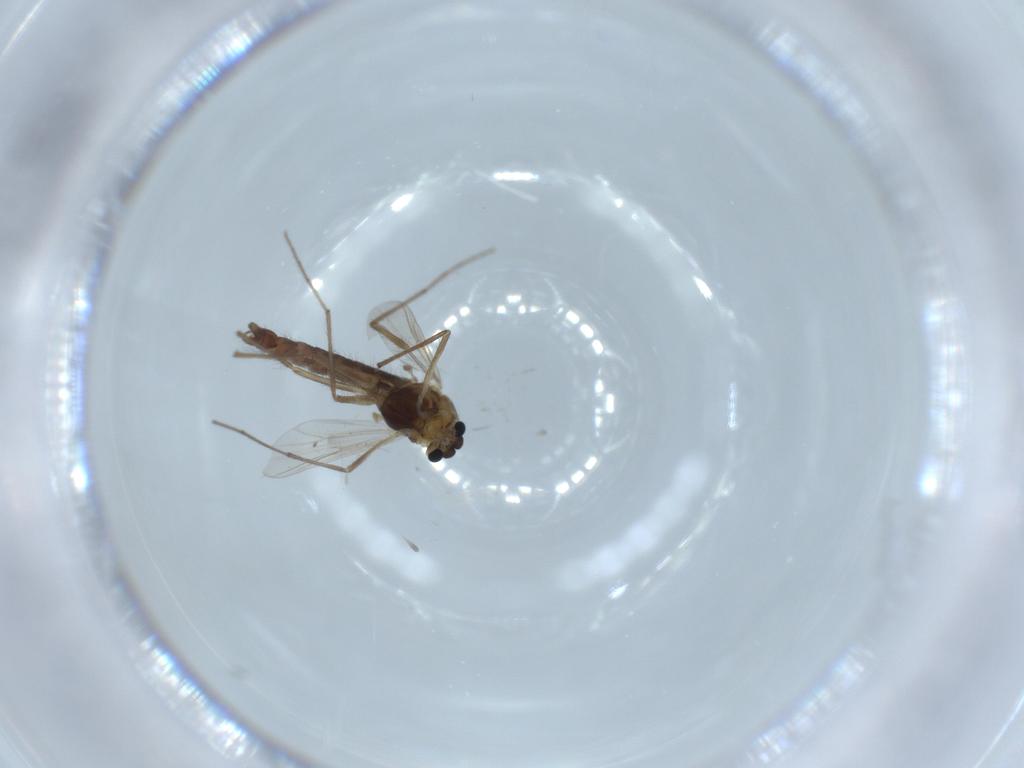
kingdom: Animalia
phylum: Arthropoda
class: Insecta
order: Diptera
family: Chironomidae
